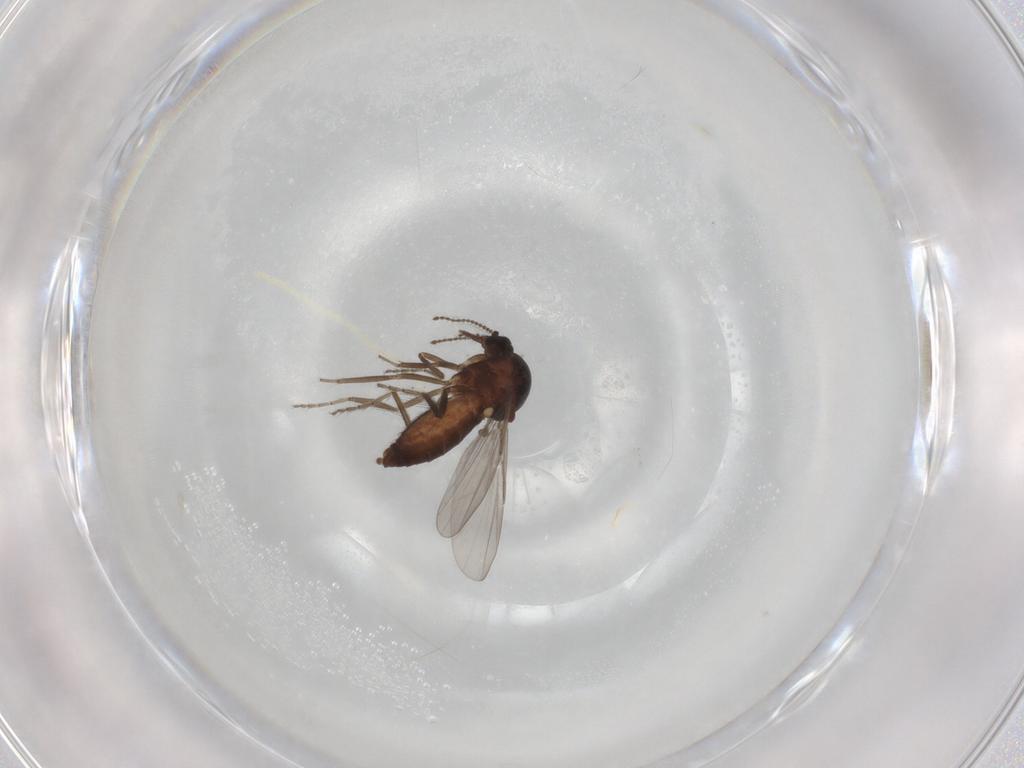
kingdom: Animalia
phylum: Arthropoda
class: Insecta
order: Diptera
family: Ceratopogonidae
